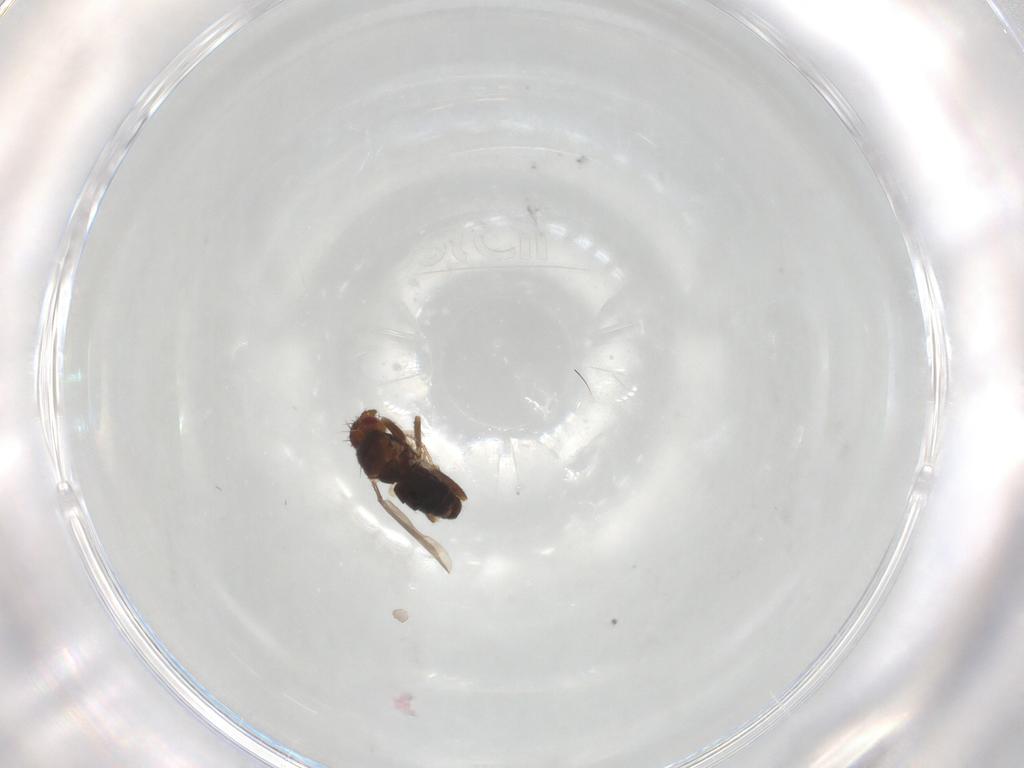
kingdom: Animalia
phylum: Arthropoda
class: Insecta
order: Diptera
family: Sphaeroceridae
